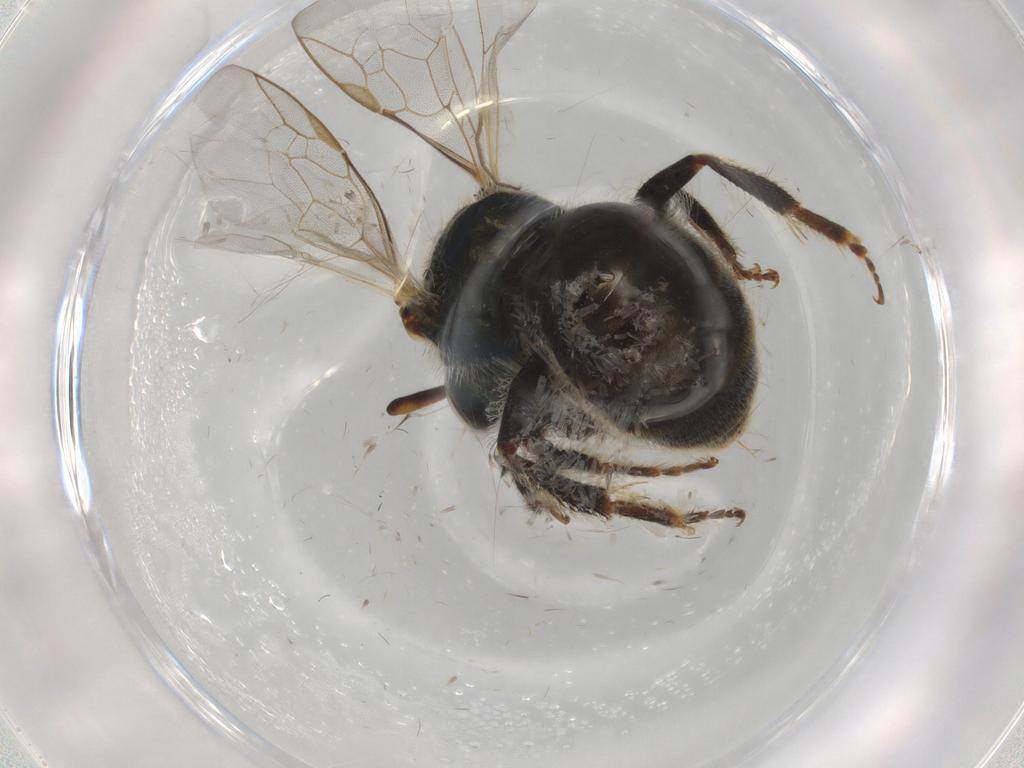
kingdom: Animalia
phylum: Arthropoda
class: Insecta
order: Hymenoptera
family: Halictidae
